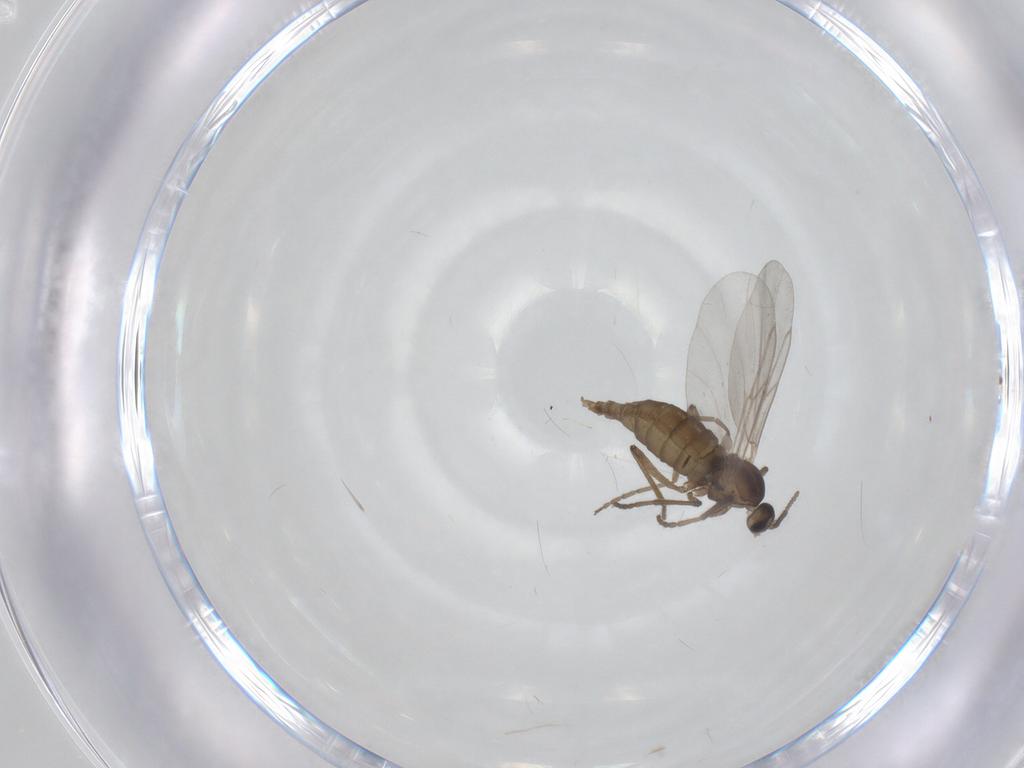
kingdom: Animalia
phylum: Arthropoda
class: Insecta
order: Diptera
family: Cecidomyiidae
